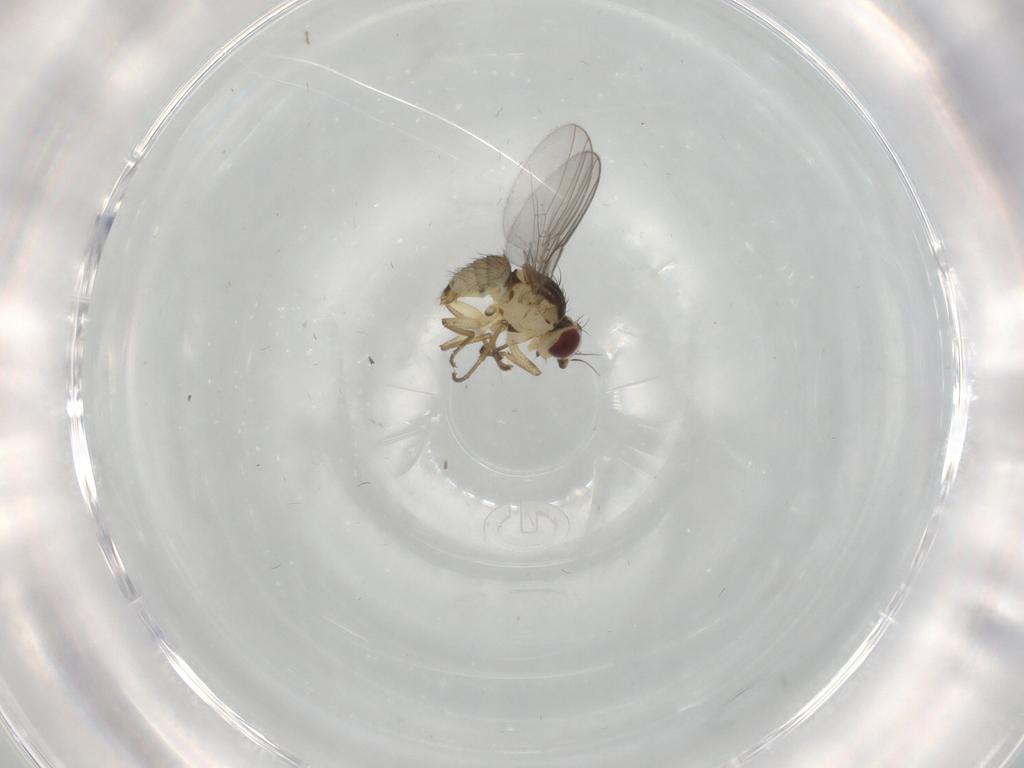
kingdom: Animalia
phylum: Arthropoda
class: Insecta
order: Diptera
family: Agromyzidae
